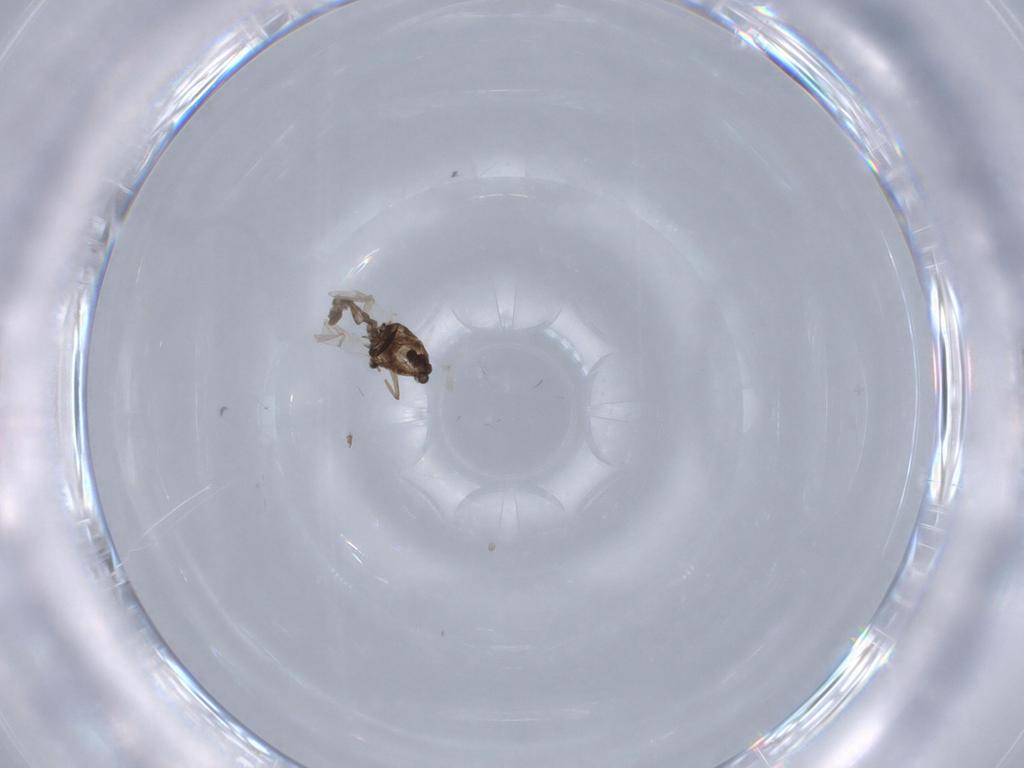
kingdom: Animalia
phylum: Arthropoda
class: Insecta
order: Diptera
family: Chironomidae
